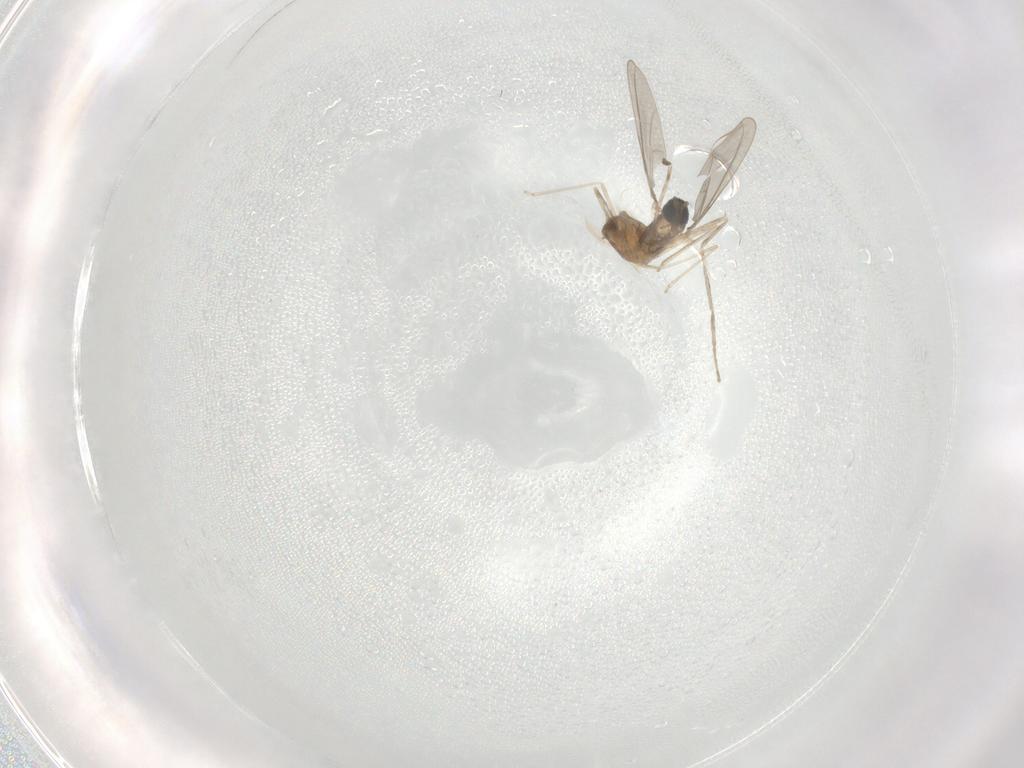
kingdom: Animalia
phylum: Arthropoda
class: Insecta
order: Diptera
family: Cecidomyiidae
